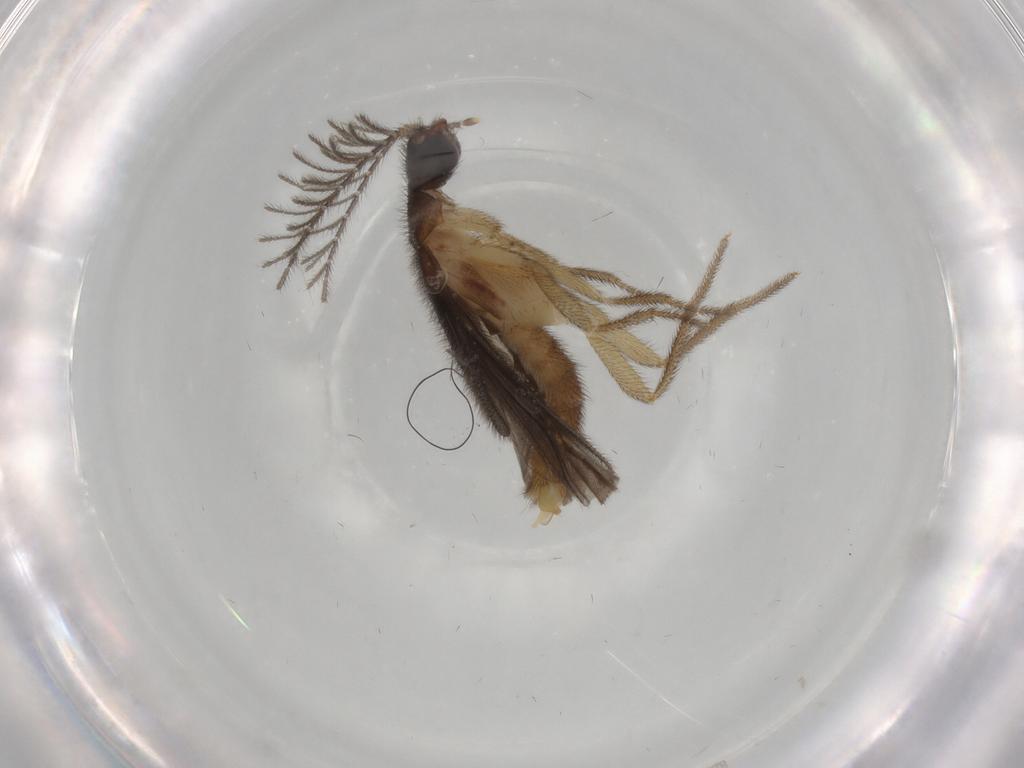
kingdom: Animalia
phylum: Arthropoda
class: Insecta
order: Coleoptera
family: Phengodidae
